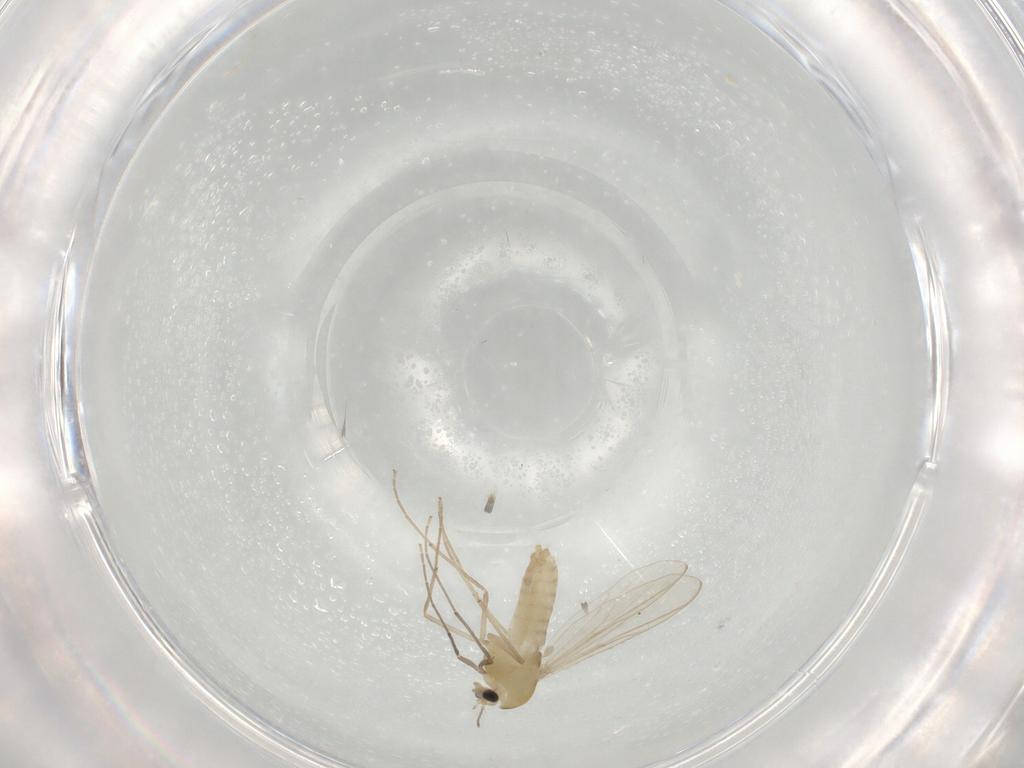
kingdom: Animalia
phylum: Arthropoda
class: Insecta
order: Diptera
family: Chironomidae
